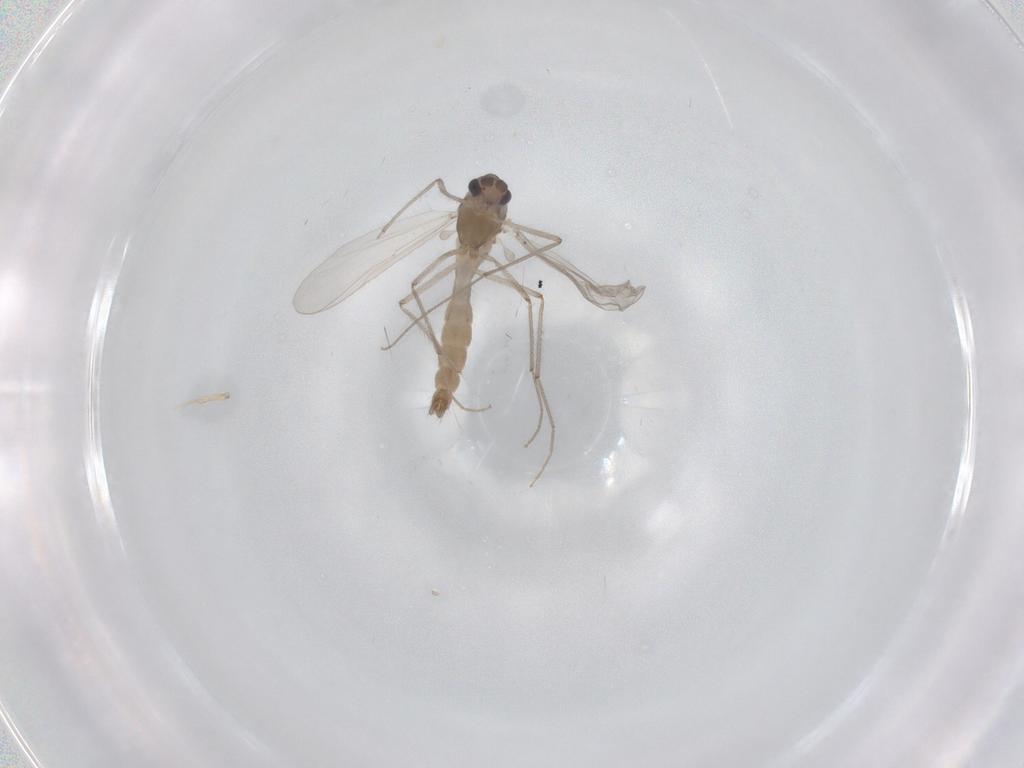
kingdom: Animalia
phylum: Arthropoda
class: Insecta
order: Diptera
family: Chironomidae
